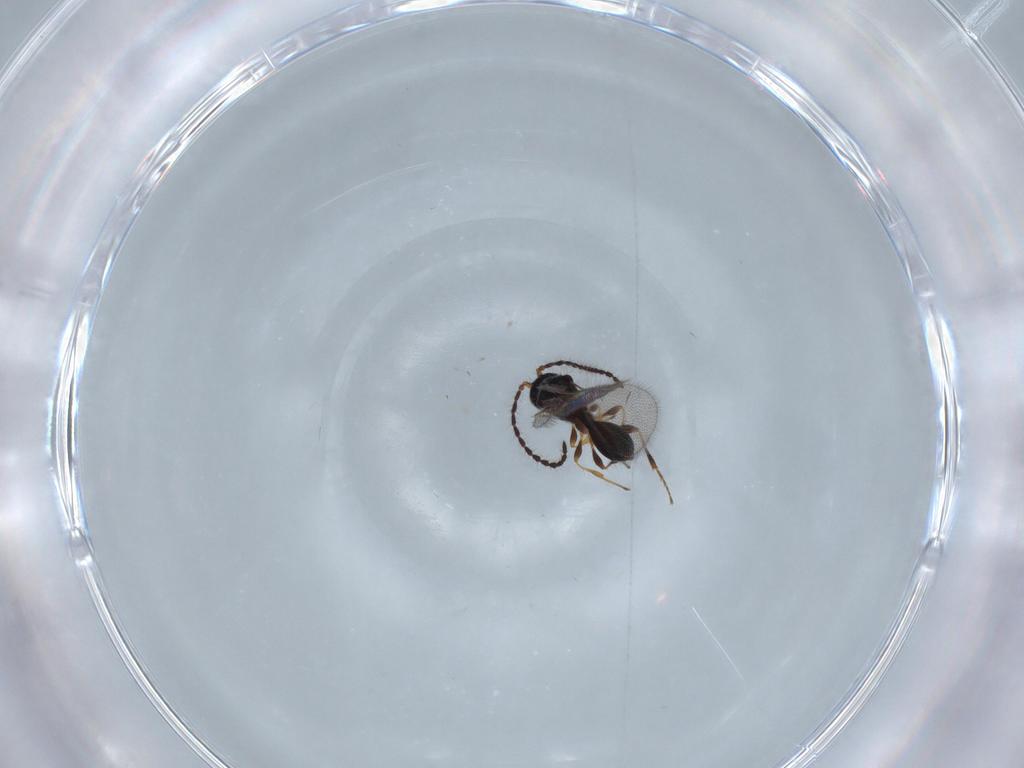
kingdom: Animalia
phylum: Arthropoda
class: Insecta
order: Hymenoptera
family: Diapriidae
